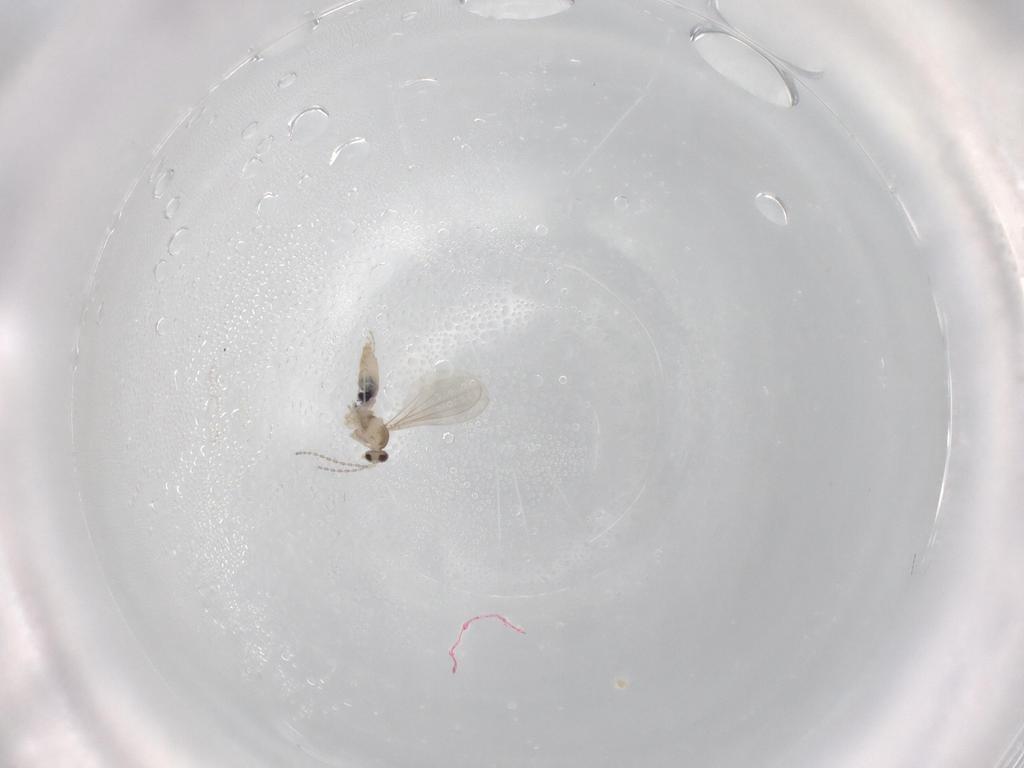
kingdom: Animalia
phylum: Arthropoda
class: Insecta
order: Diptera
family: Cecidomyiidae
